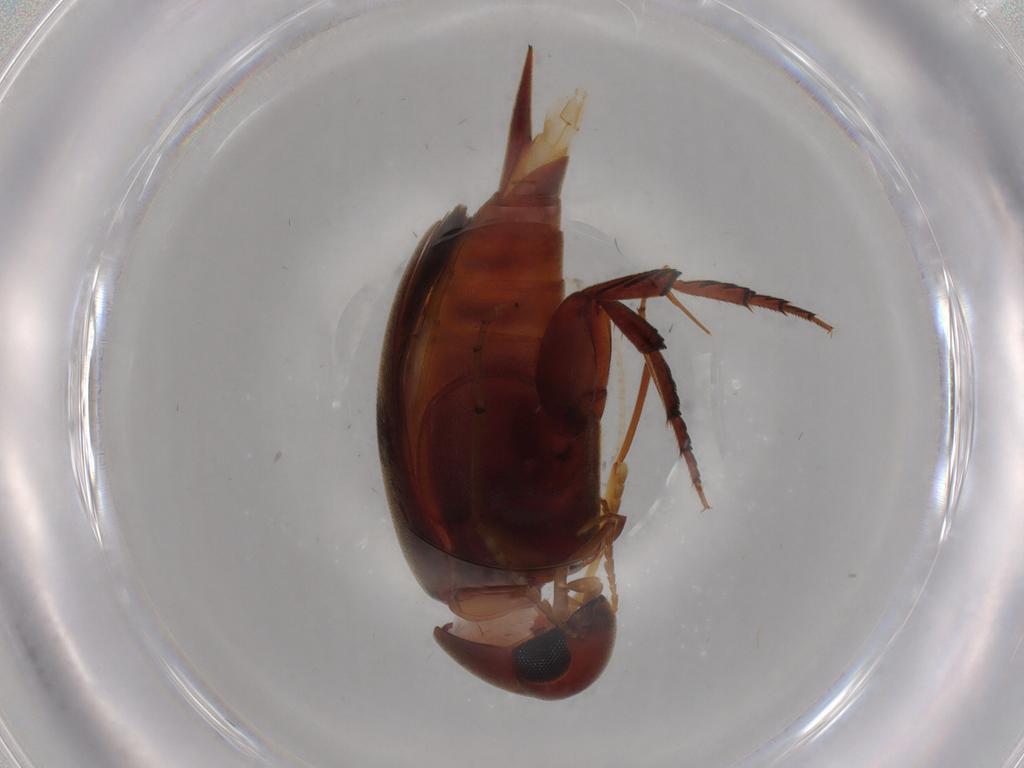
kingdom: Animalia
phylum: Arthropoda
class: Insecta
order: Coleoptera
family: Mordellidae
